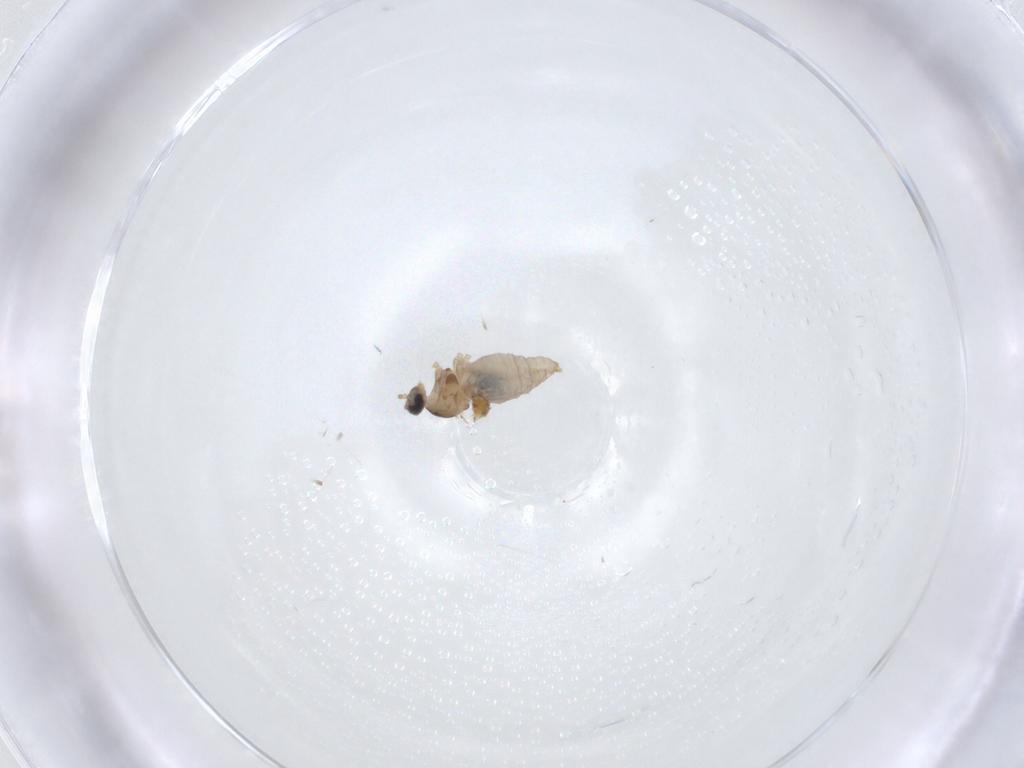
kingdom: Animalia
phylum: Arthropoda
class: Insecta
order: Diptera
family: Cecidomyiidae
